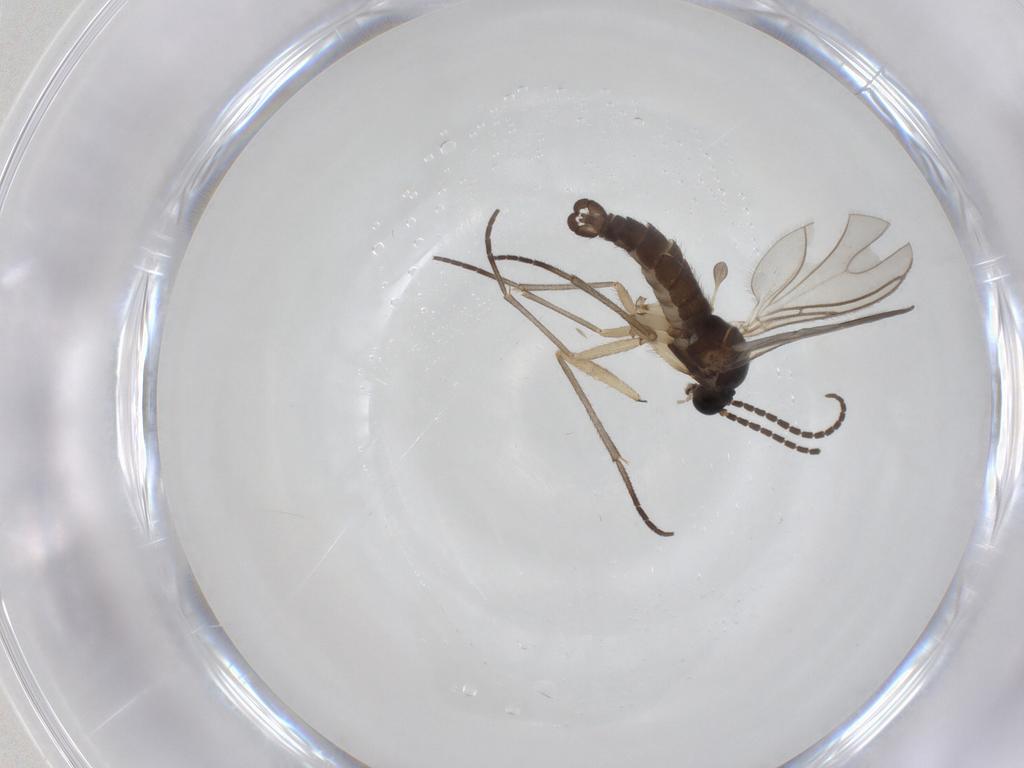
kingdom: Animalia
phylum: Arthropoda
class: Insecta
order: Diptera
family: Sciaridae
